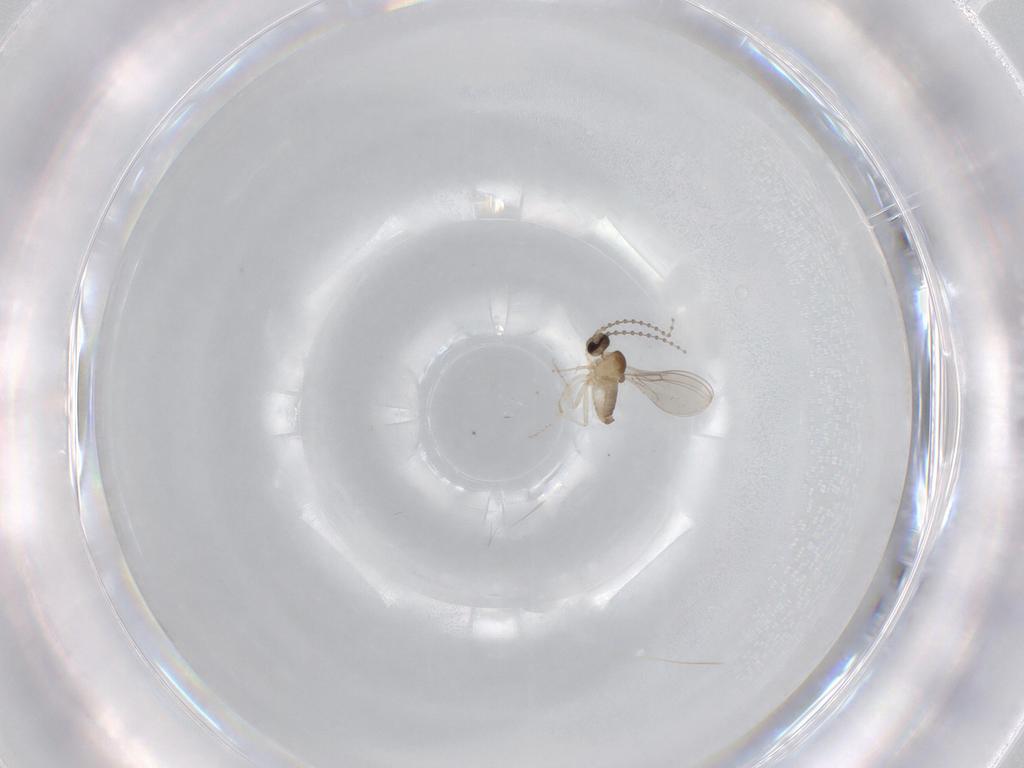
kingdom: Animalia
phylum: Arthropoda
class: Insecta
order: Diptera
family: Cecidomyiidae
